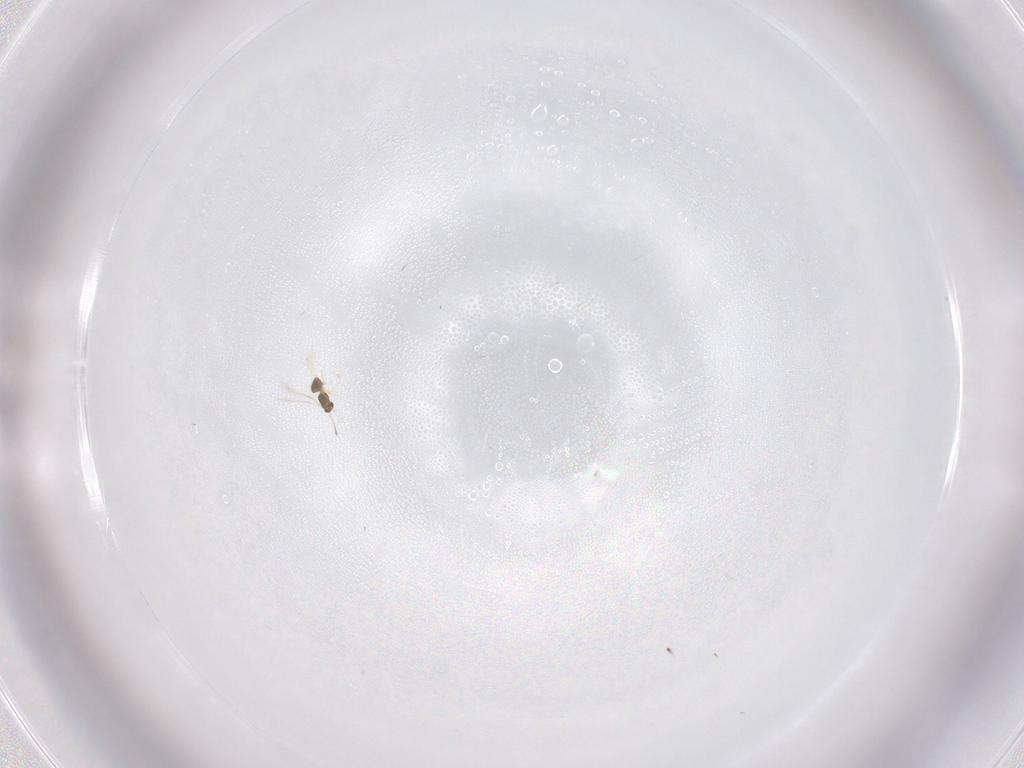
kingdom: Animalia
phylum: Arthropoda
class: Insecta
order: Hymenoptera
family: Mymaridae
